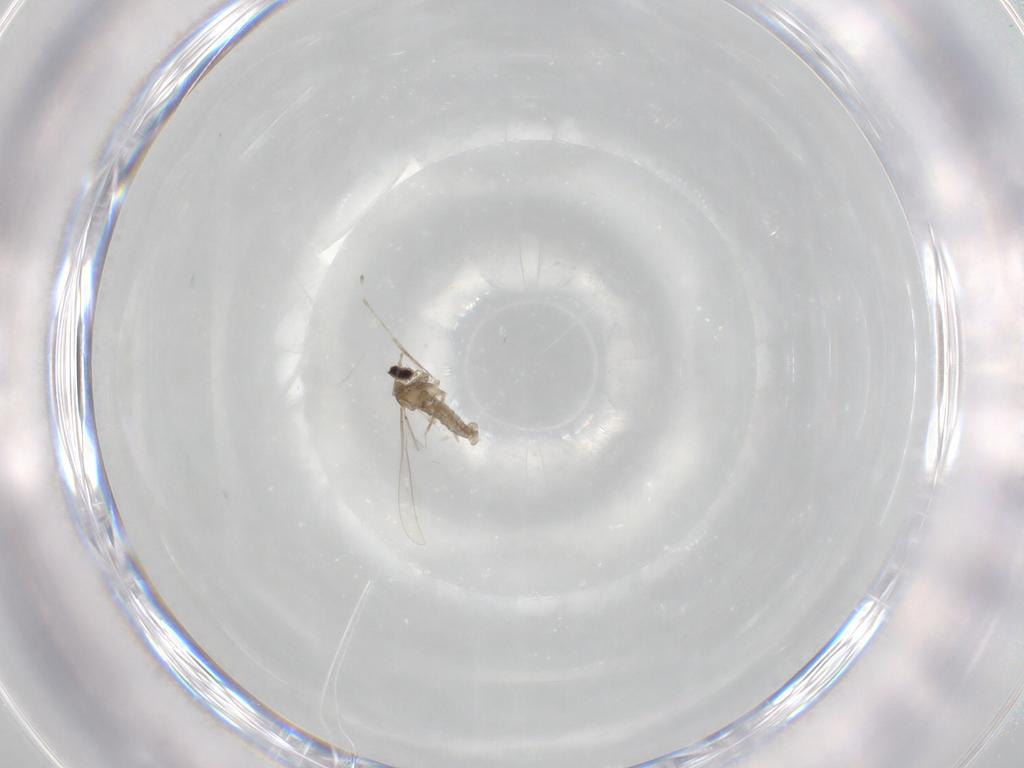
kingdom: Animalia
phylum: Arthropoda
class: Insecta
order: Diptera
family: Cecidomyiidae
